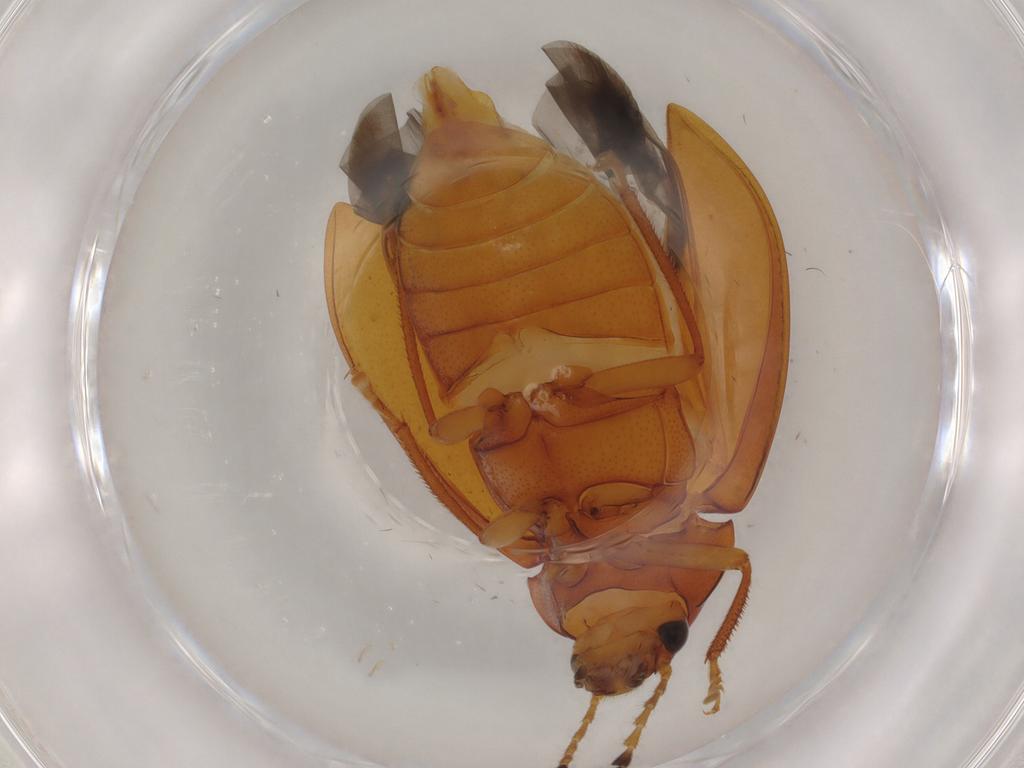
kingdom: Animalia
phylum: Arthropoda
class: Insecta
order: Coleoptera
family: Ptilodactylidae
